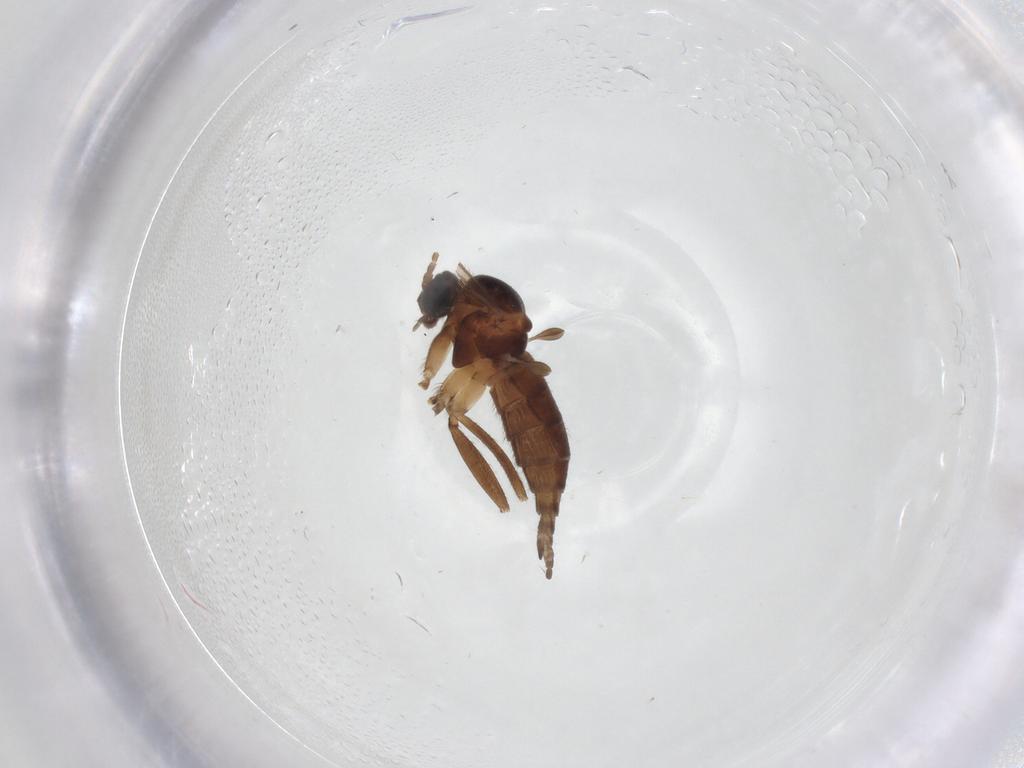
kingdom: Animalia
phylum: Arthropoda
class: Insecta
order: Diptera
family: Sciaridae
